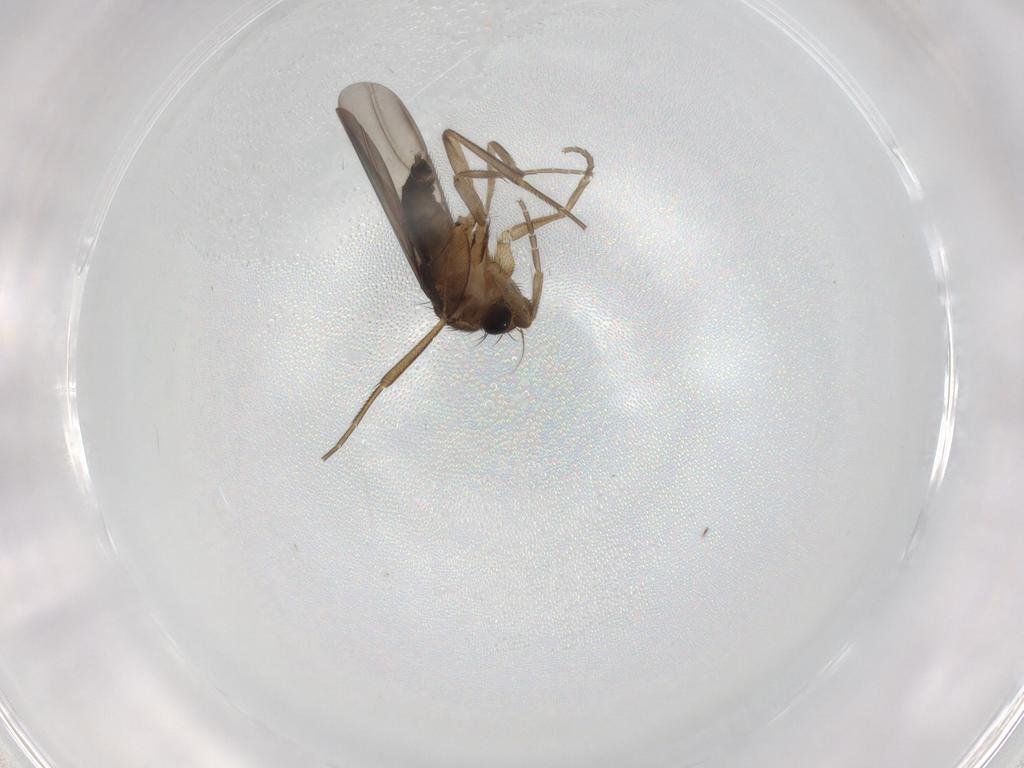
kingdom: Animalia
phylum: Arthropoda
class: Insecta
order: Diptera
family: Phoridae
